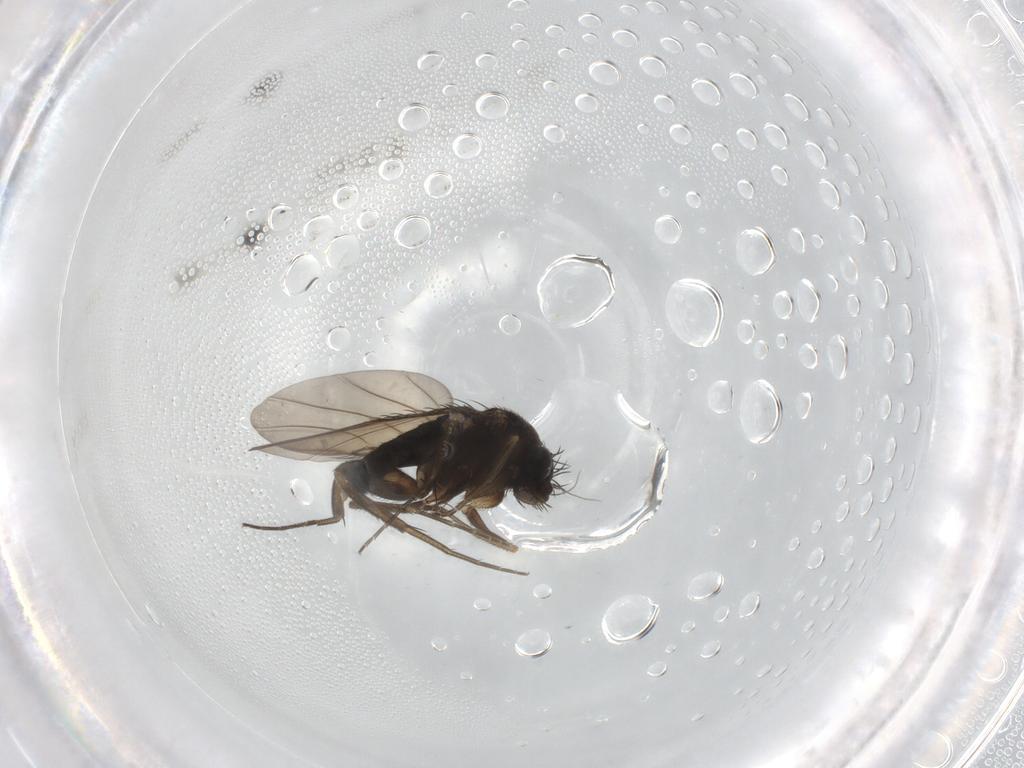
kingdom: Animalia
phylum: Arthropoda
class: Insecta
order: Diptera
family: Phoridae
